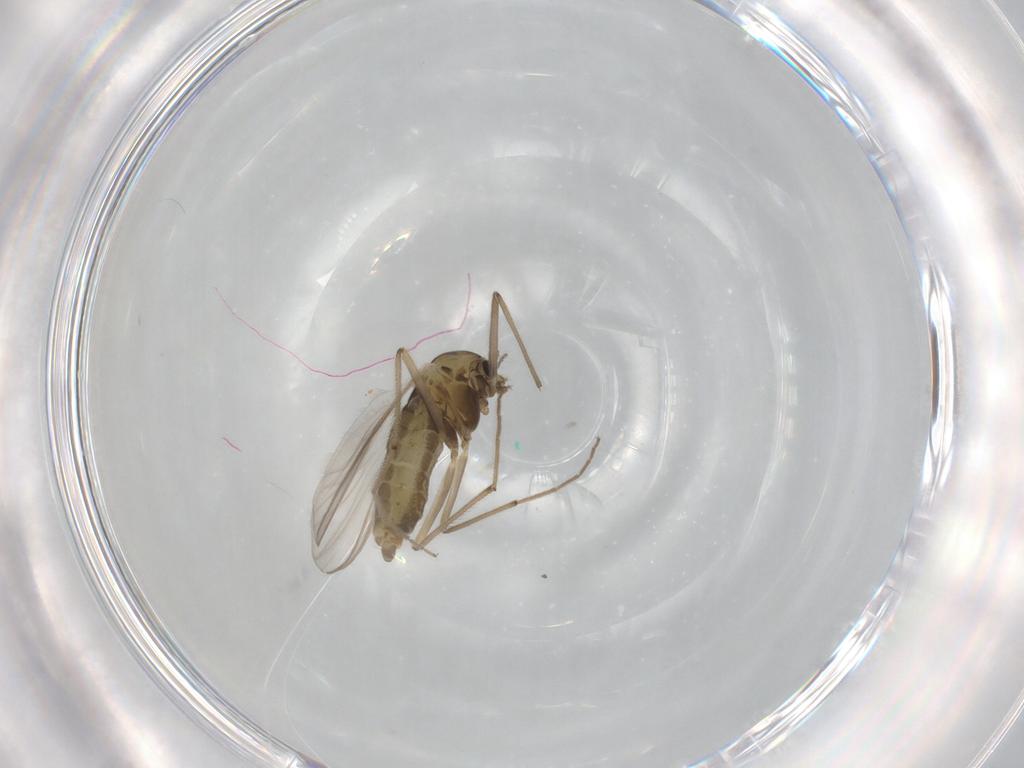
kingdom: Animalia
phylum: Arthropoda
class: Insecta
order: Diptera
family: Chironomidae
